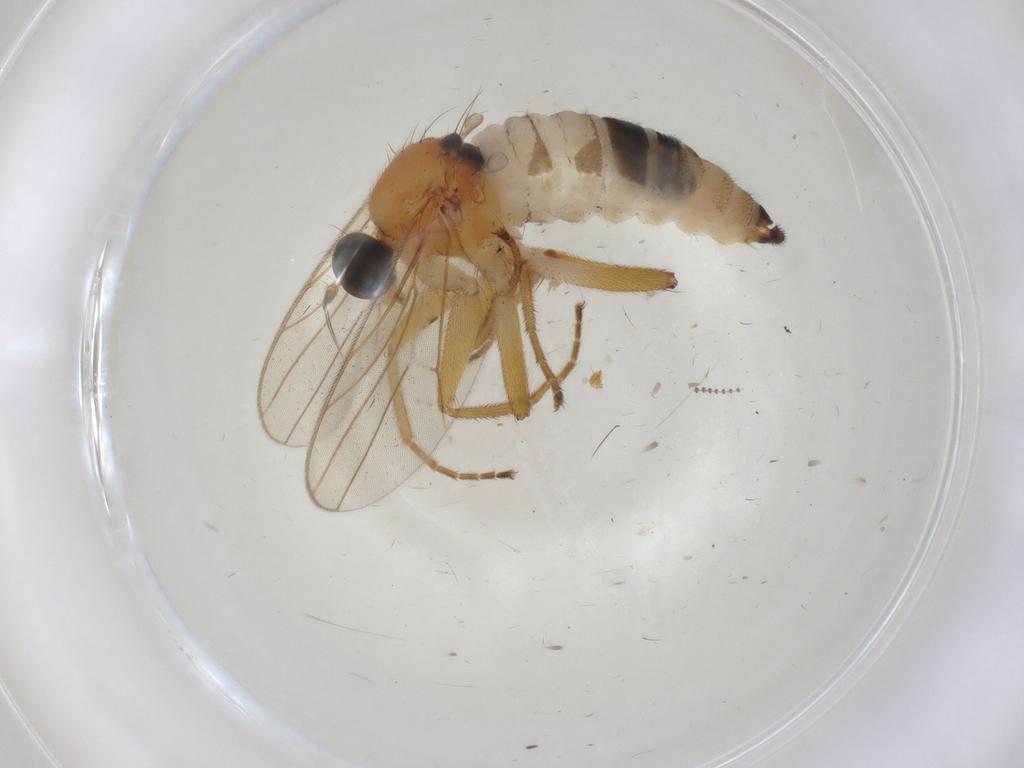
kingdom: Animalia
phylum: Arthropoda
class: Insecta
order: Diptera
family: Hybotidae
